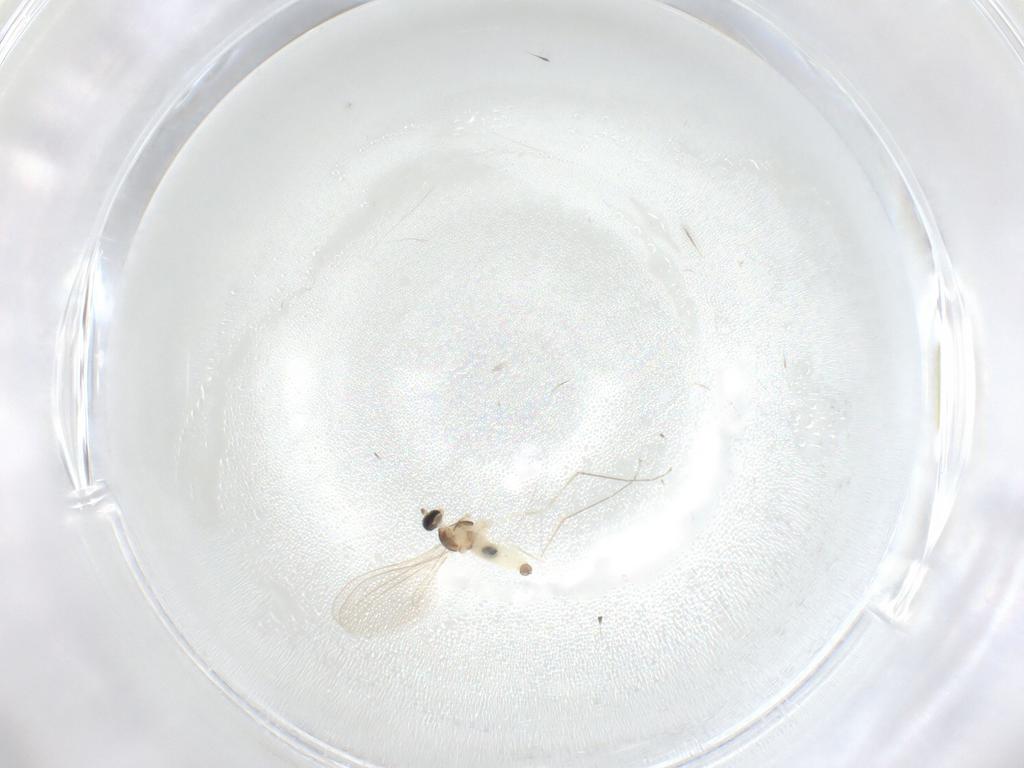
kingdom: Animalia
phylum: Arthropoda
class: Insecta
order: Diptera
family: Cecidomyiidae
